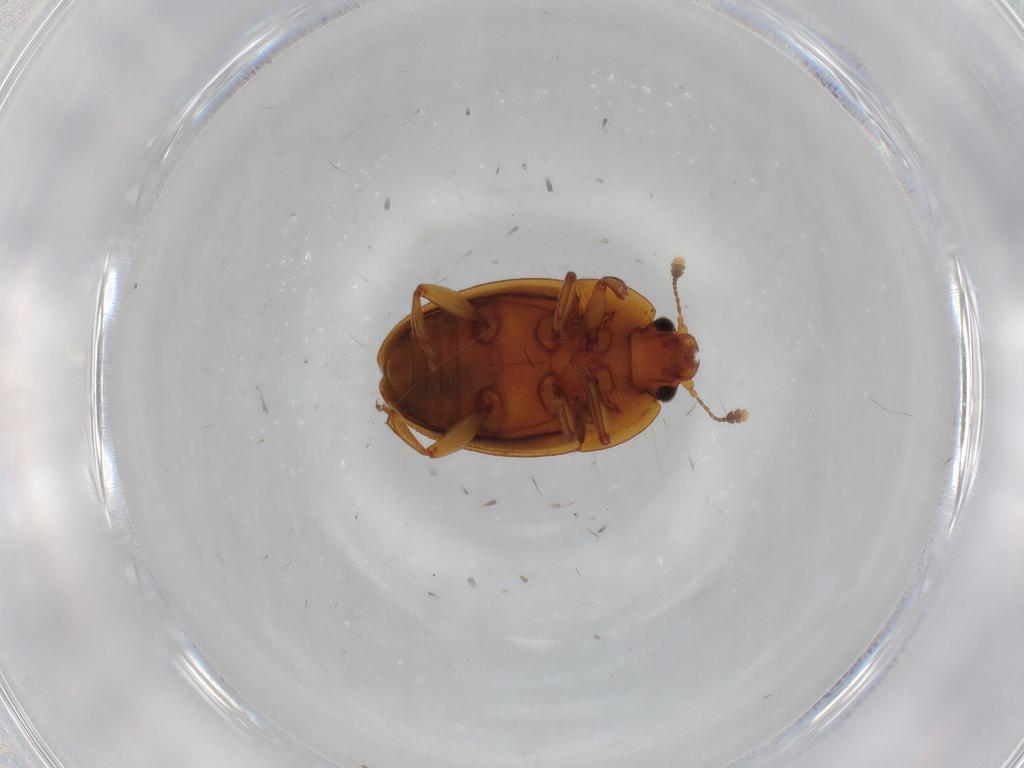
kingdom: Animalia
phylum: Arthropoda
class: Insecta
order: Coleoptera
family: Nitidulidae
